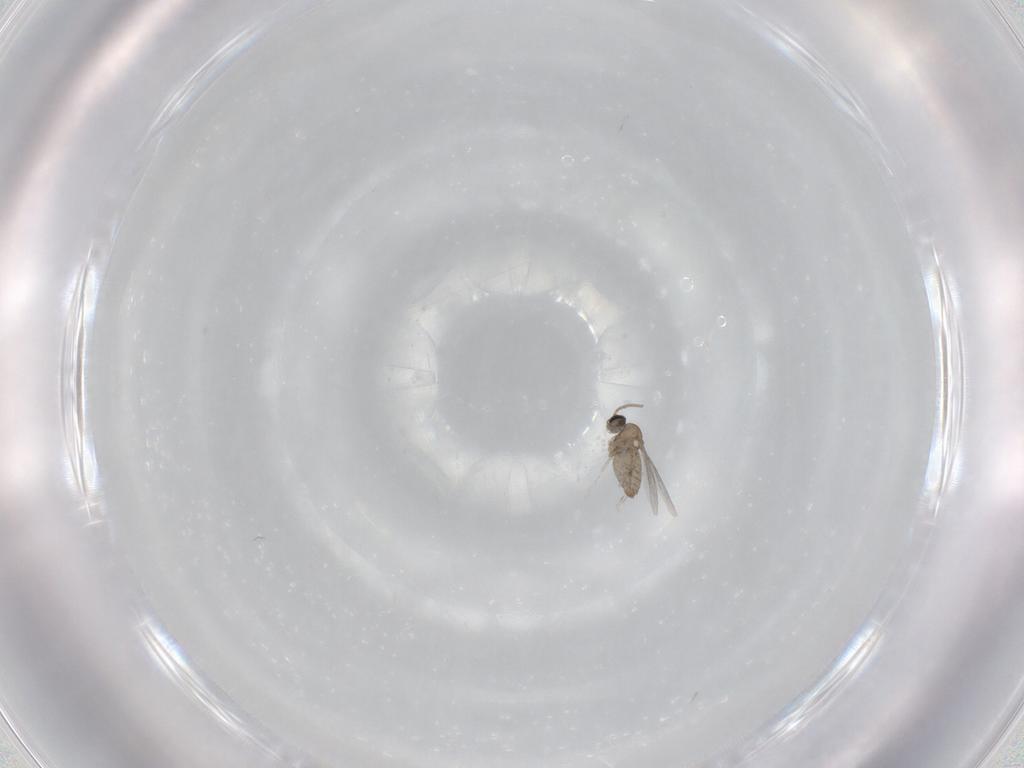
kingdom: Animalia
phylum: Arthropoda
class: Insecta
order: Diptera
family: Cecidomyiidae
